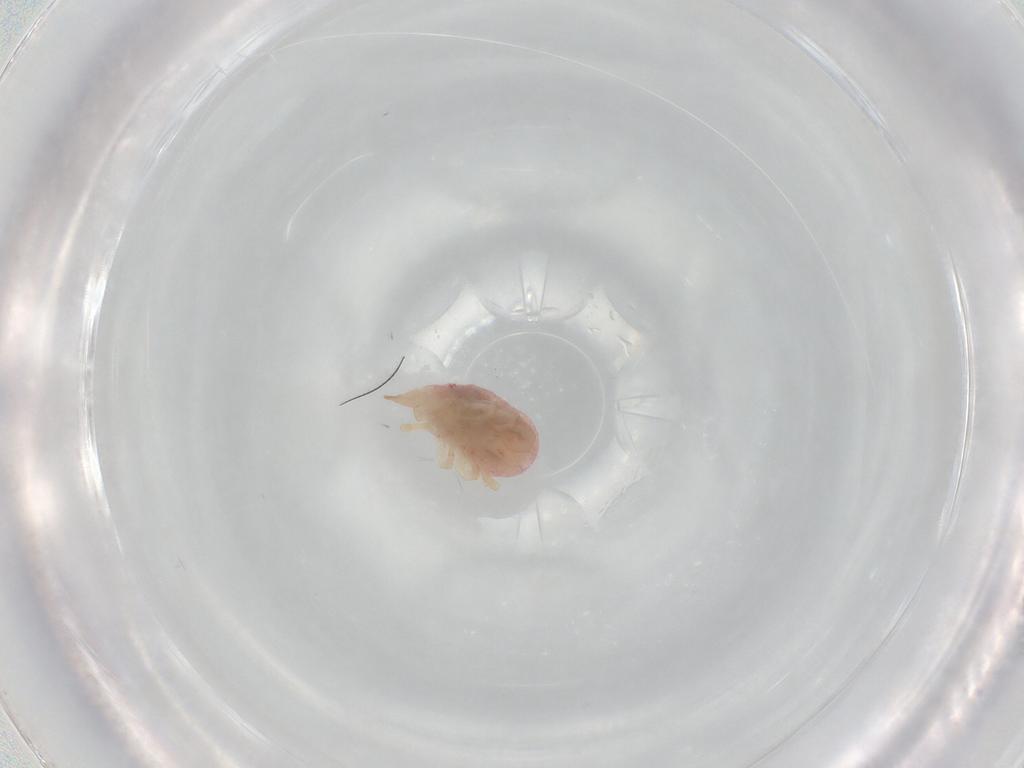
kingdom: Animalia
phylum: Arthropoda
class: Arachnida
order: Trombidiformes
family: Bdellidae
